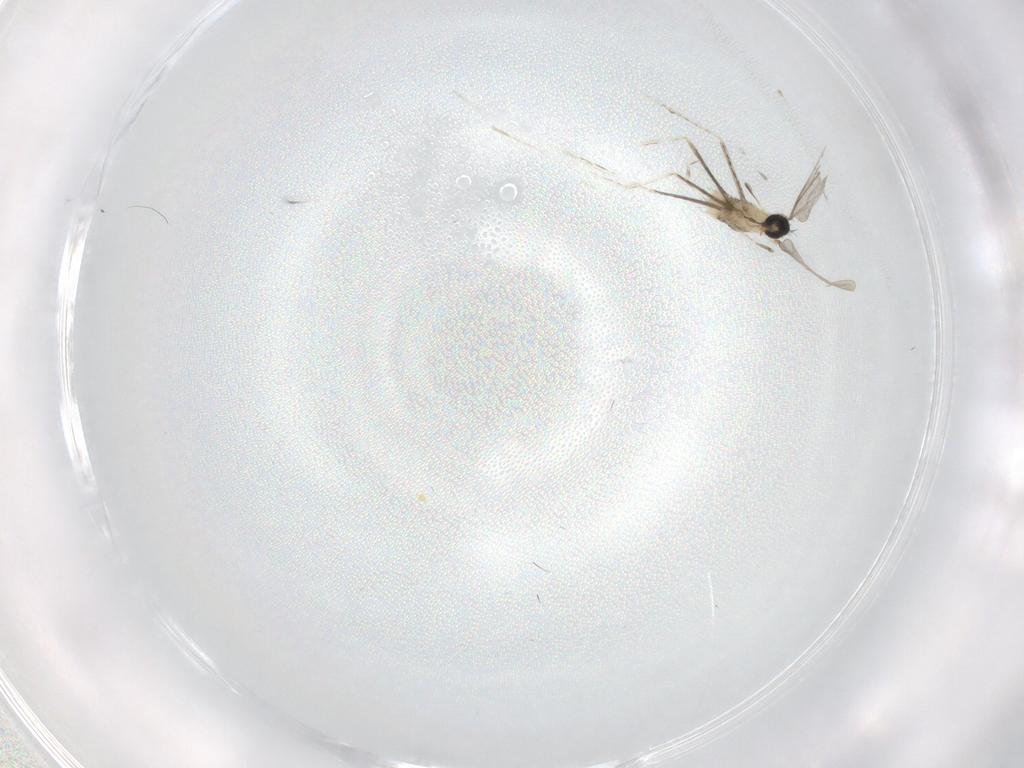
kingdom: Animalia
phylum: Arthropoda
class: Insecta
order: Diptera
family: Cecidomyiidae
